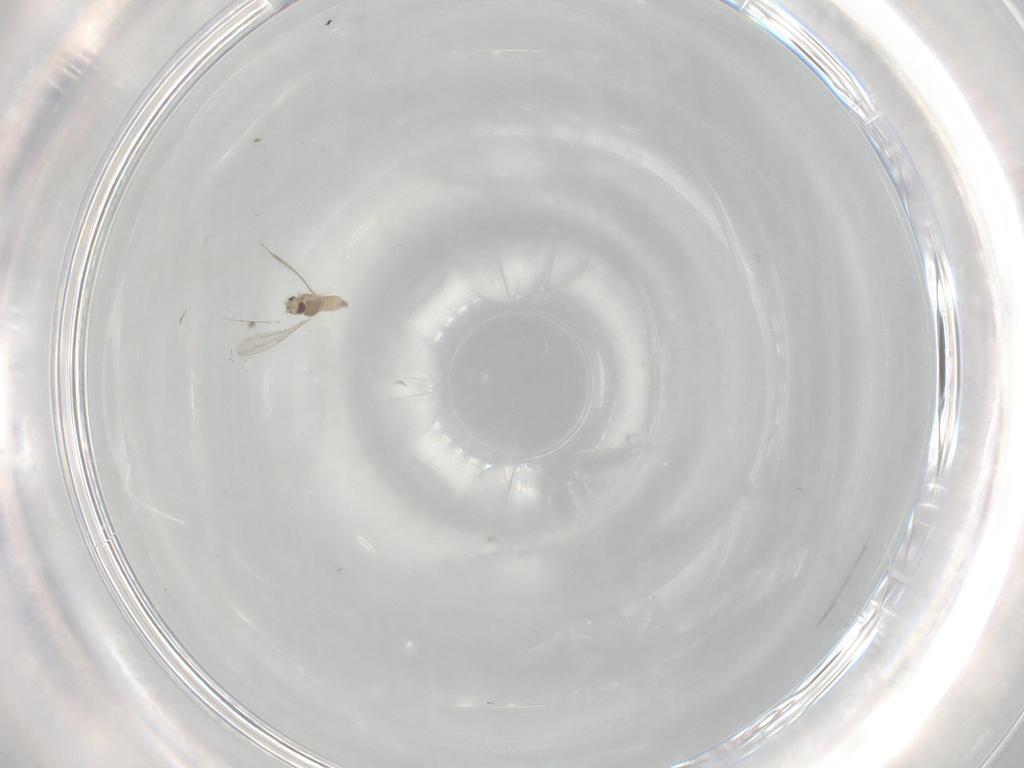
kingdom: Animalia
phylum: Arthropoda
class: Insecta
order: Diptera
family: Cecidomyiidae
